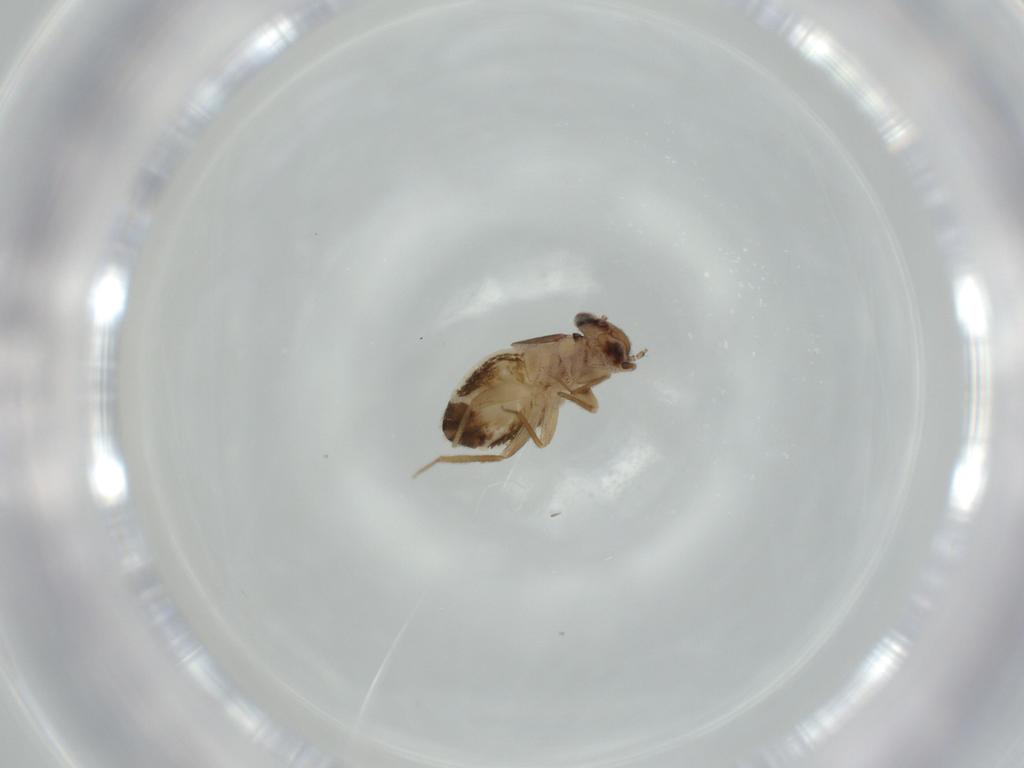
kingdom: Animalia
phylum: Arthropoda
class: Insecta
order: Psocodea
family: Lepidopsocidae
